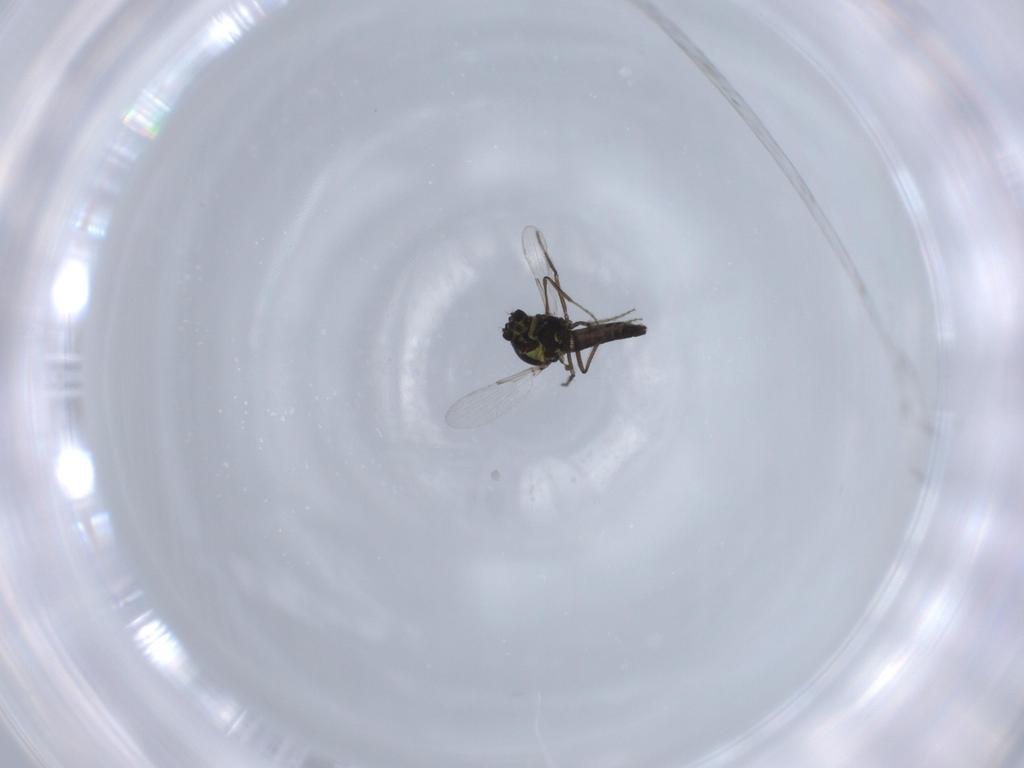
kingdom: Animalia
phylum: Arthropoda
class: Insecta
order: Diptera
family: Ceratopogonidae
